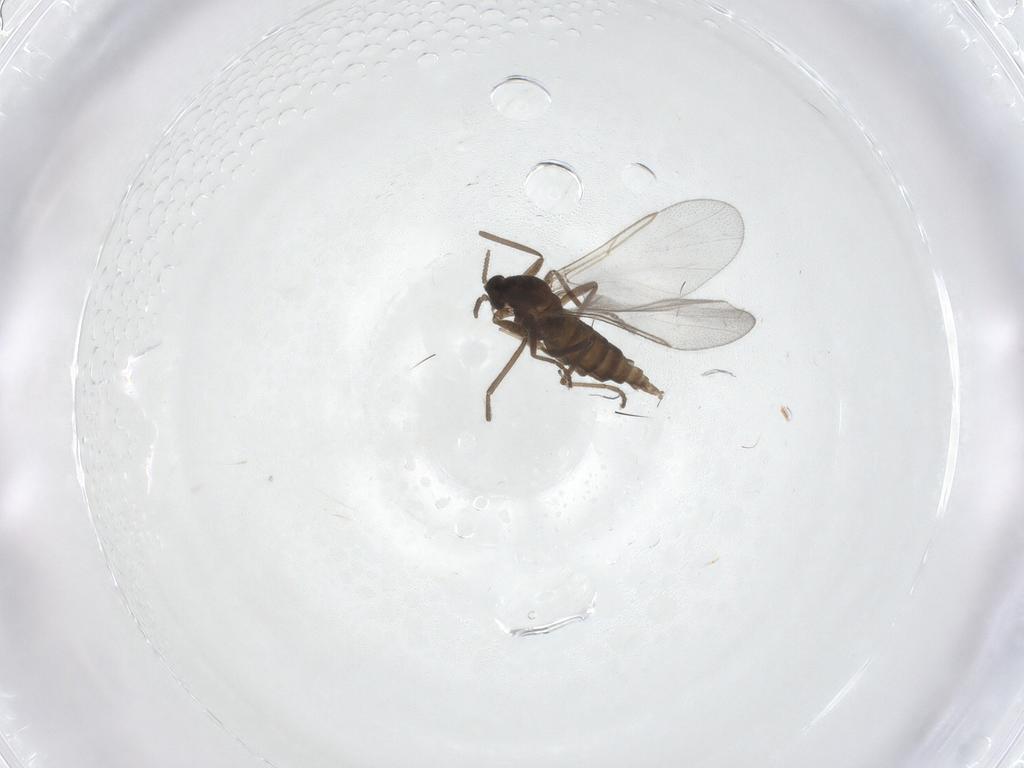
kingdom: Animalia
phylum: Arthropoda
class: Insecta
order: Diptera
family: Cecidomyiidae
